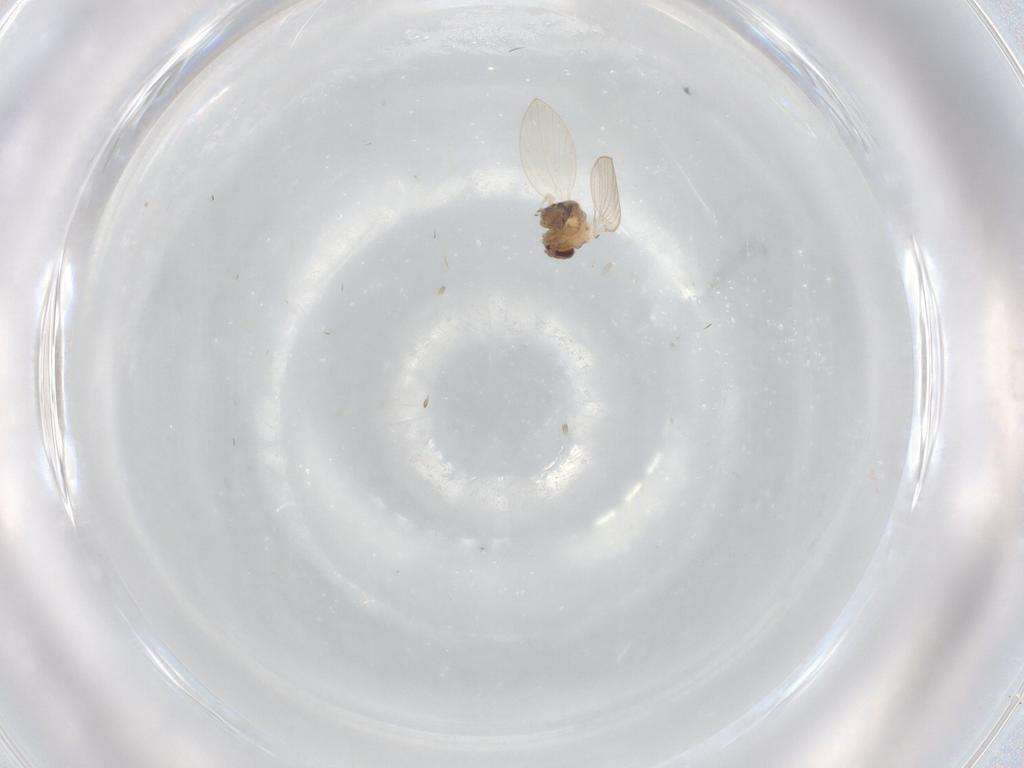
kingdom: Animalia
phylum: Arthropoda
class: Insecta
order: Diptera
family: Psychodidae
